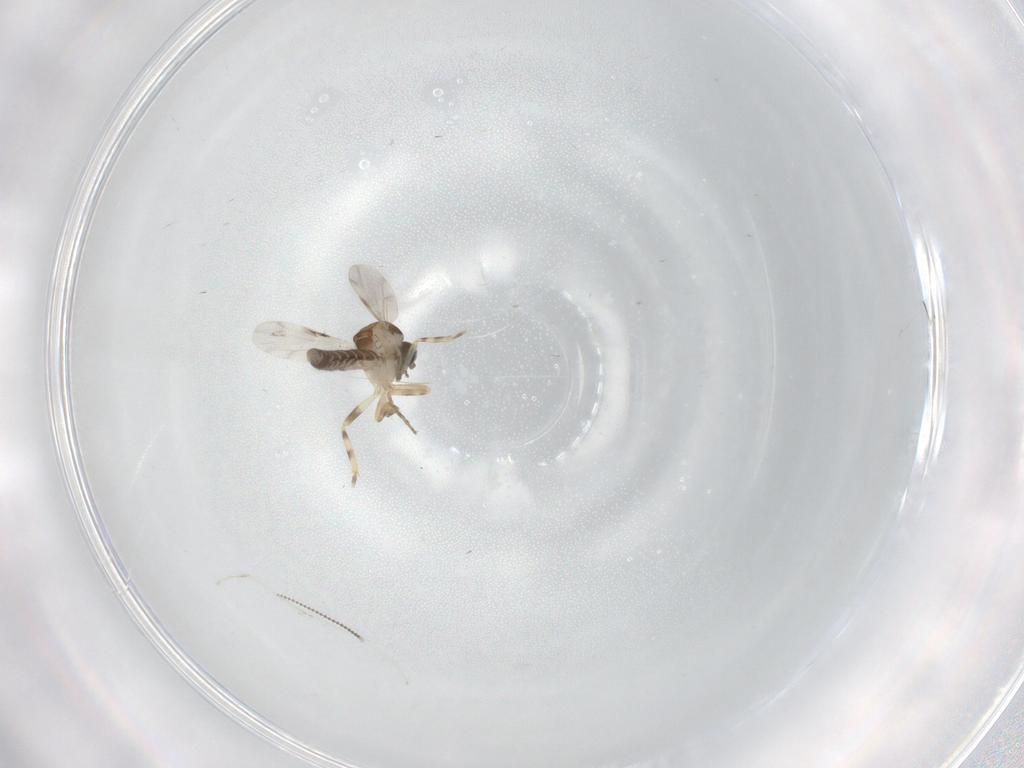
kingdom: Animalia
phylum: Arthropoda
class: Insecta
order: Diptera
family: Ceratopogonidae
